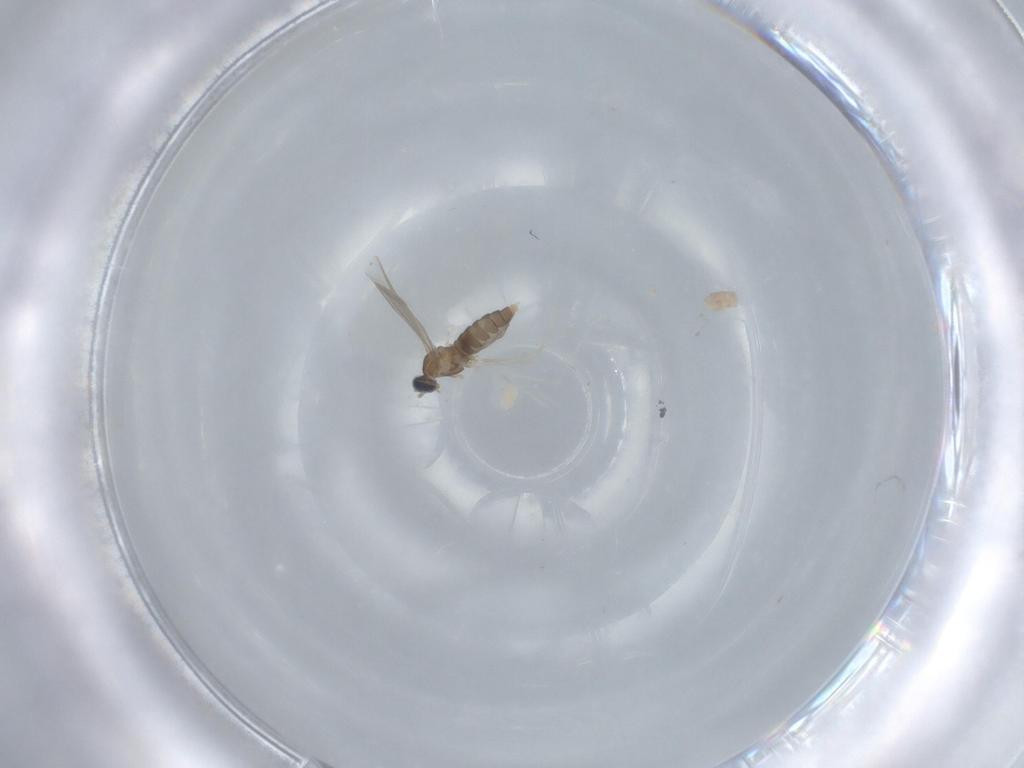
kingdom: Animalia
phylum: Arthropoda
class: Insecta
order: Diptera
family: Cecidomyiidae
